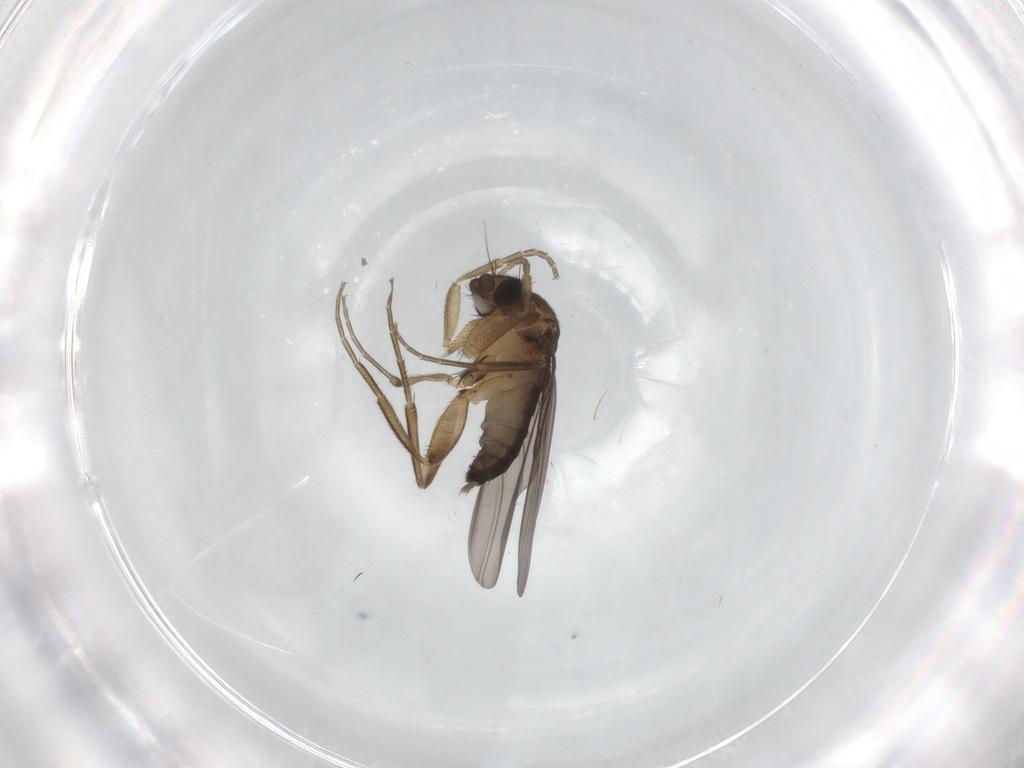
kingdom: Animalia
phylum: Arthropoda
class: Insecta
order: Diptera
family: Phoridae
